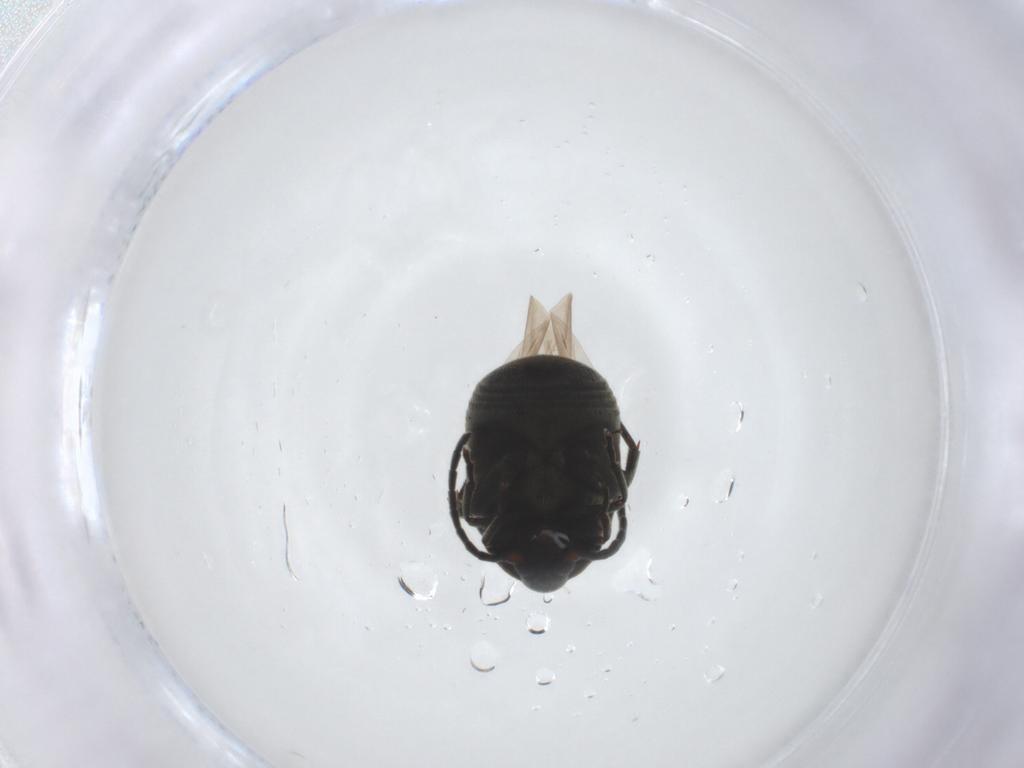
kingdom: Animalia
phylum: Arthropoda
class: Insecta
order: Coleoptera
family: Chrysomelidae
